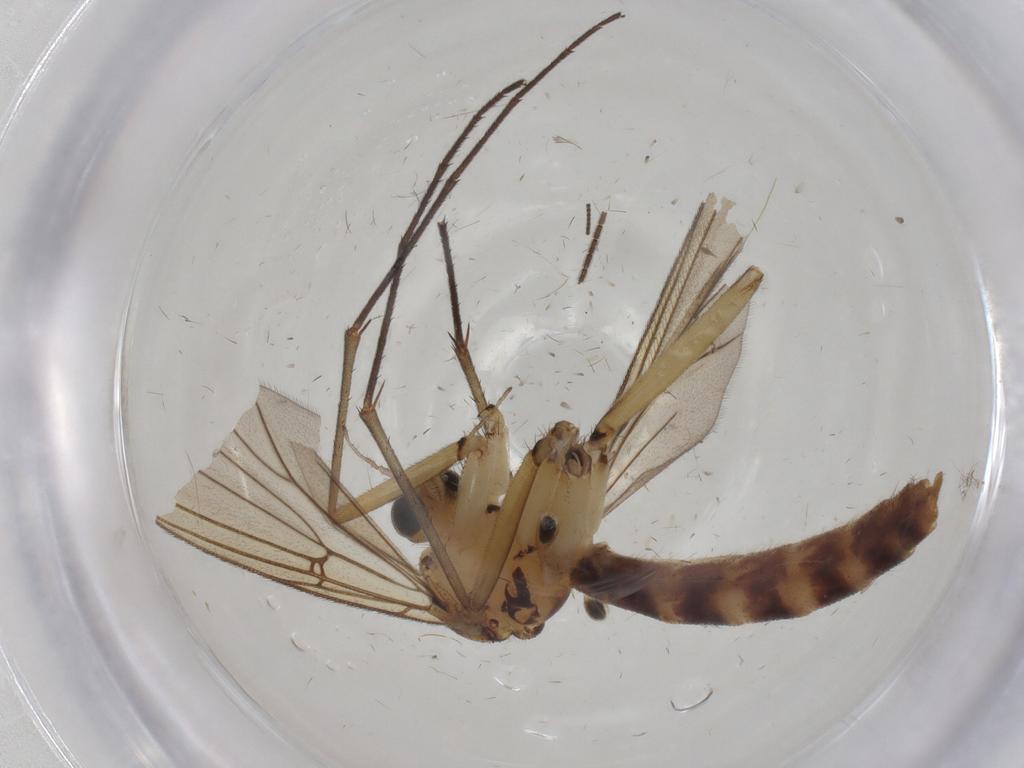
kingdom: Animalia
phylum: Arthropoda
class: Insecta
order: Diptera
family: Mycetophilidae
